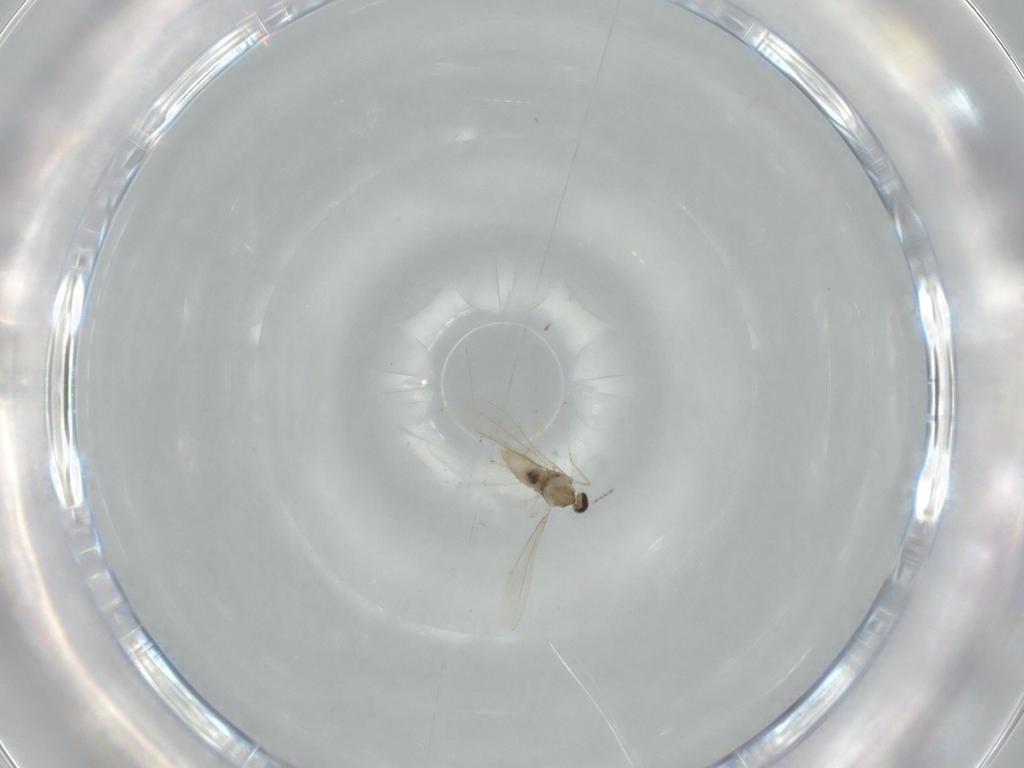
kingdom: Animalia
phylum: Arthropoda
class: Insecta
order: Diptera
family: Cecidomyiidae
